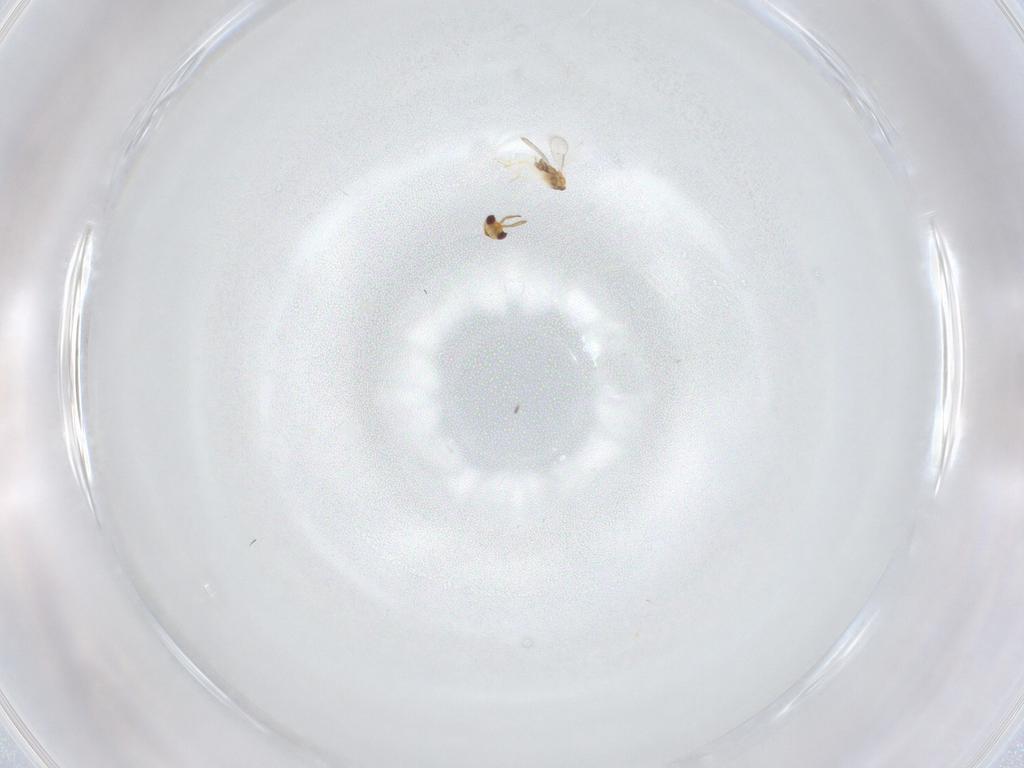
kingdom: Animalia
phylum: Arthropoda
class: Insecta
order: Hymenoptera
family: Aphelinidae
